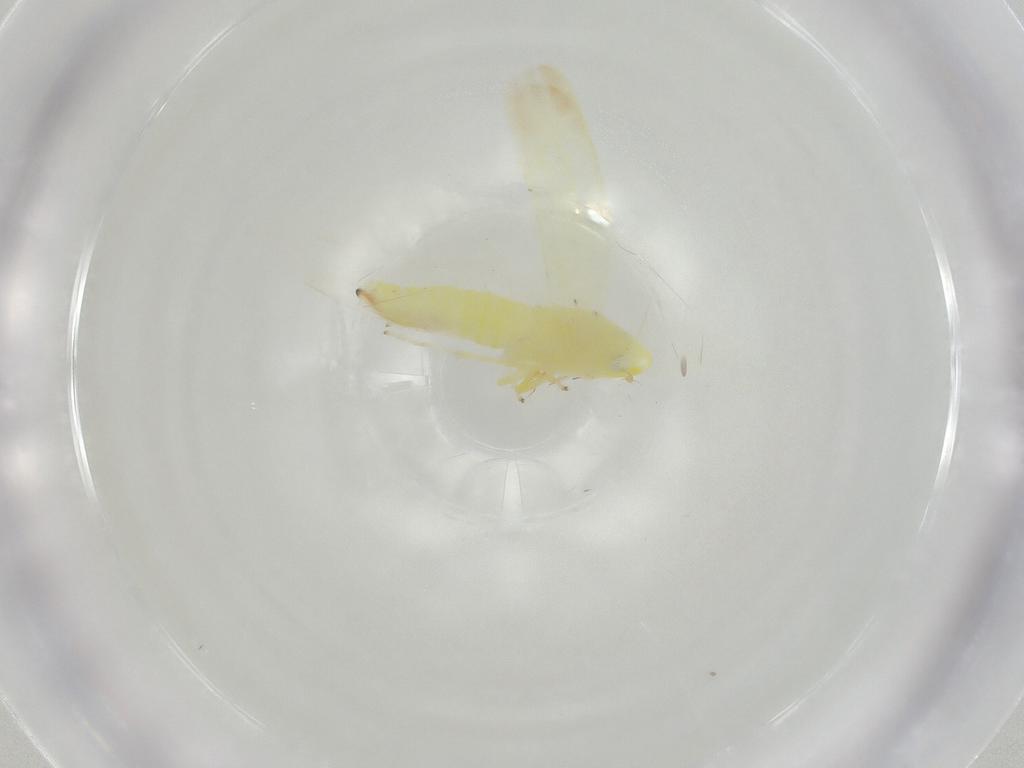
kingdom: Animalia
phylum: Arthropoda
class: Insecta
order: Hemiptera
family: Cicadellidae
